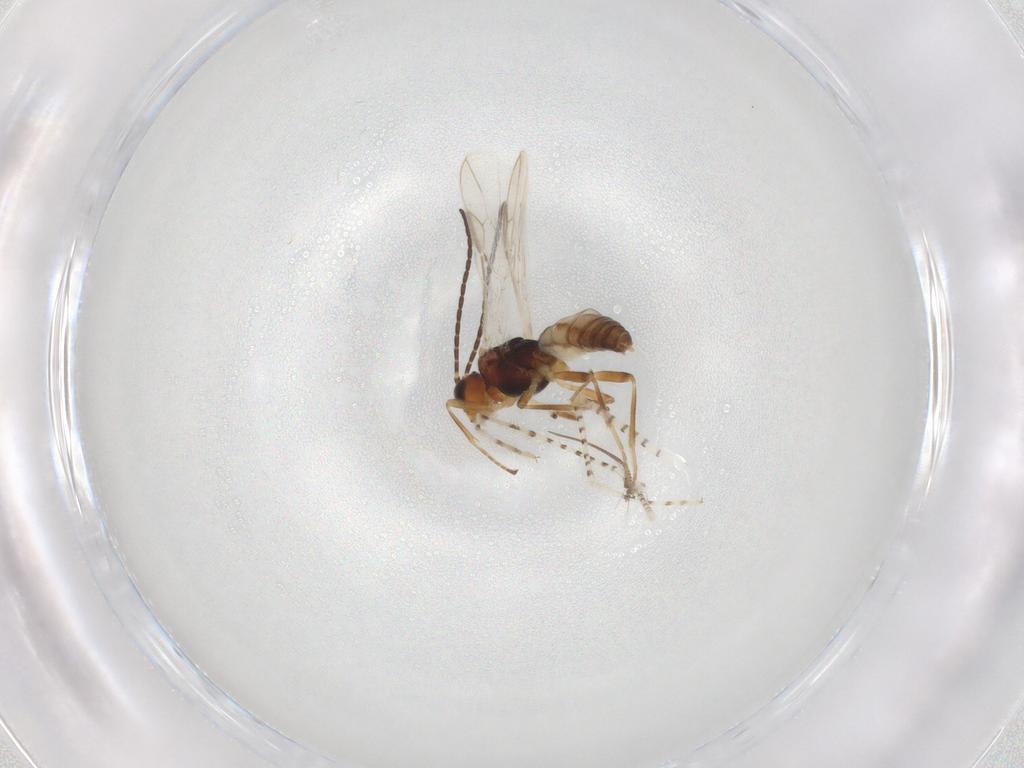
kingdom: Animalia
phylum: Arthropoda
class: Insecta
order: Hymenoptera
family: Braconidae
